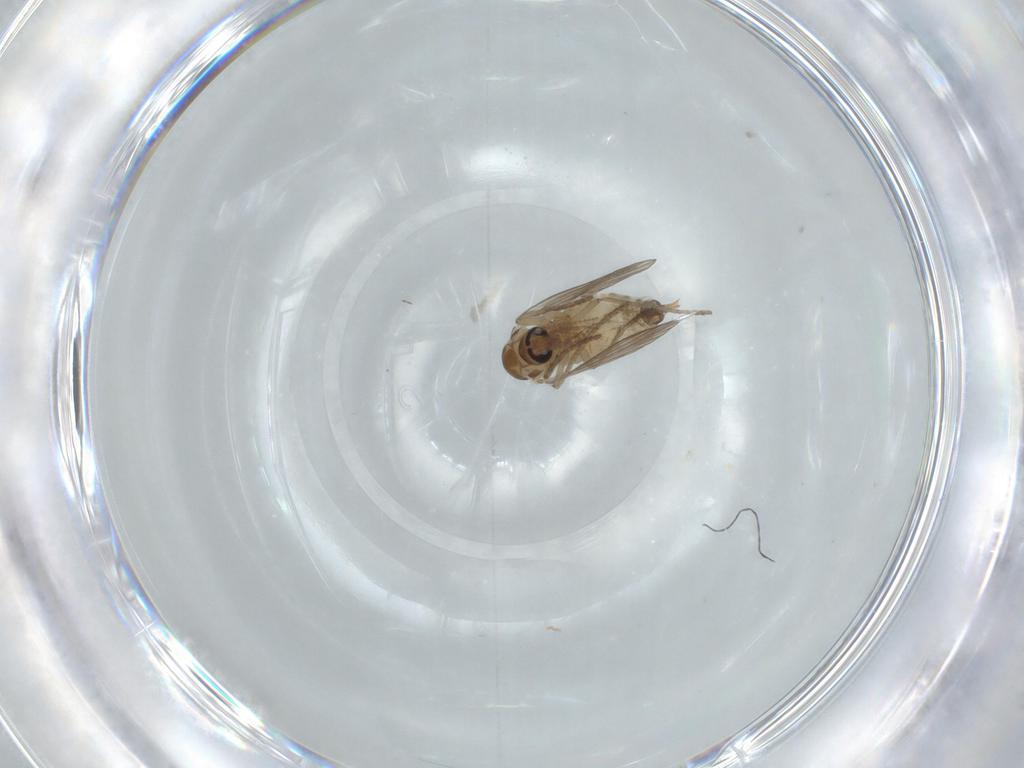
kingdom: Animalia
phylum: Arthropoda
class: Insecta
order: Diptera
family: Psychodidae
